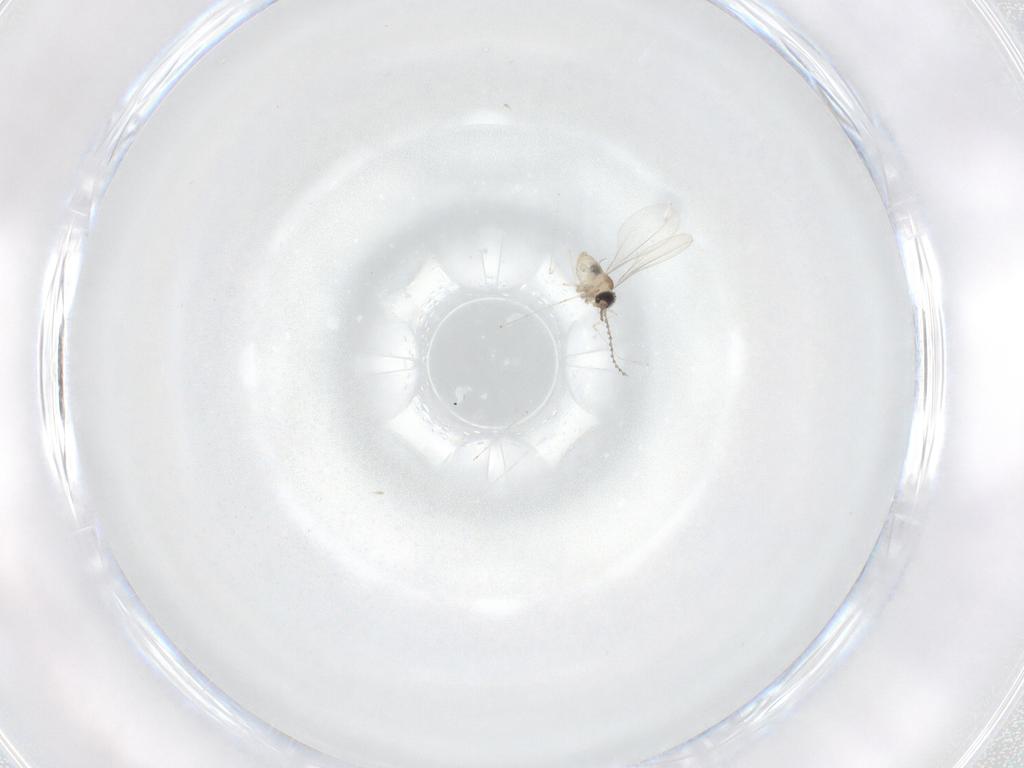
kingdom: Animalia
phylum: Arthropoda
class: Insecta
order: Diptera
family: Cecidomyiidae
